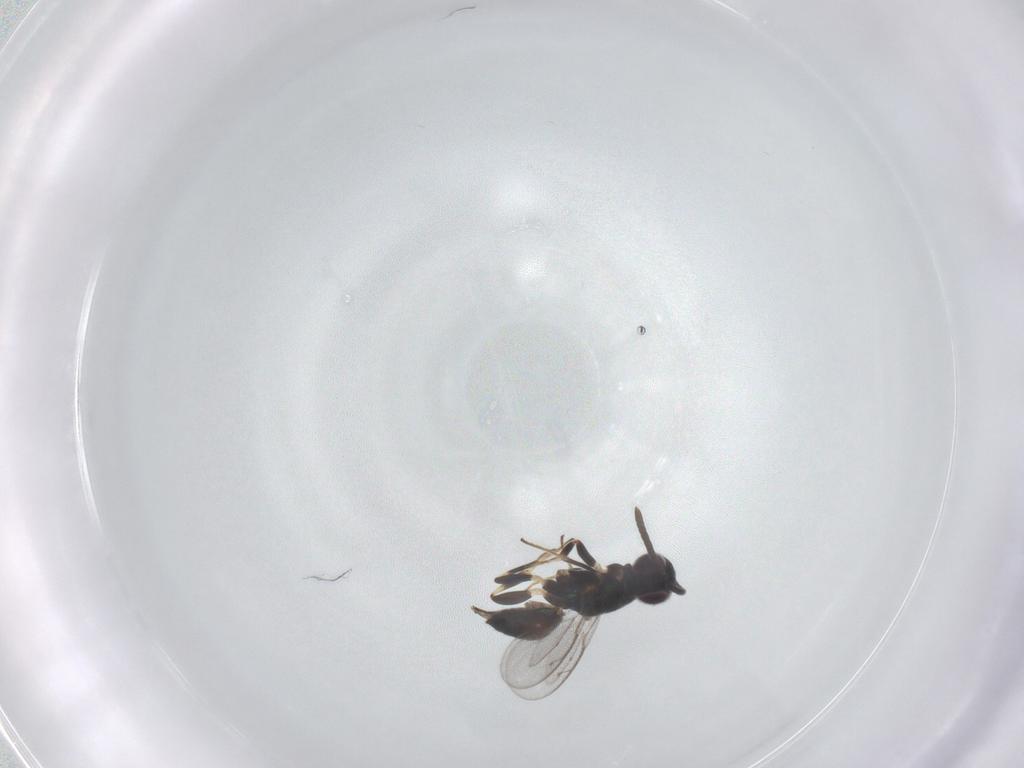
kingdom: Animalia
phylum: Arthropoda
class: Insecta
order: Hymenoptera
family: Eupelmidae
